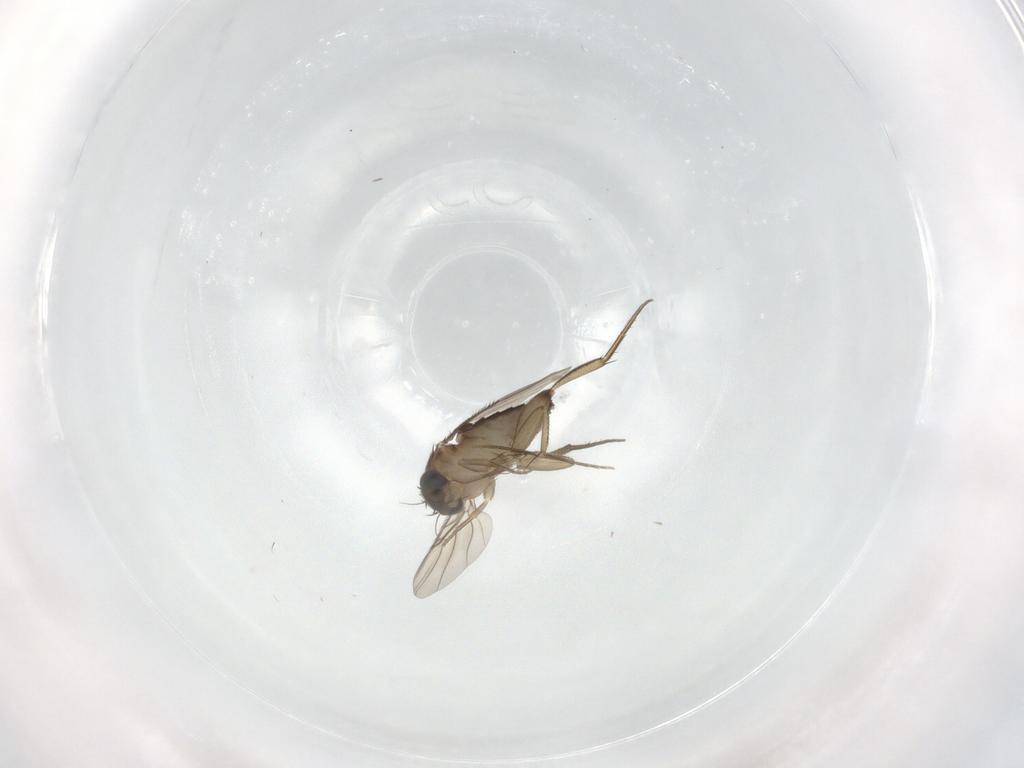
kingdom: Animalia
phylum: Arthropoda
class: Insecta
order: Diptera
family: Phoridae
